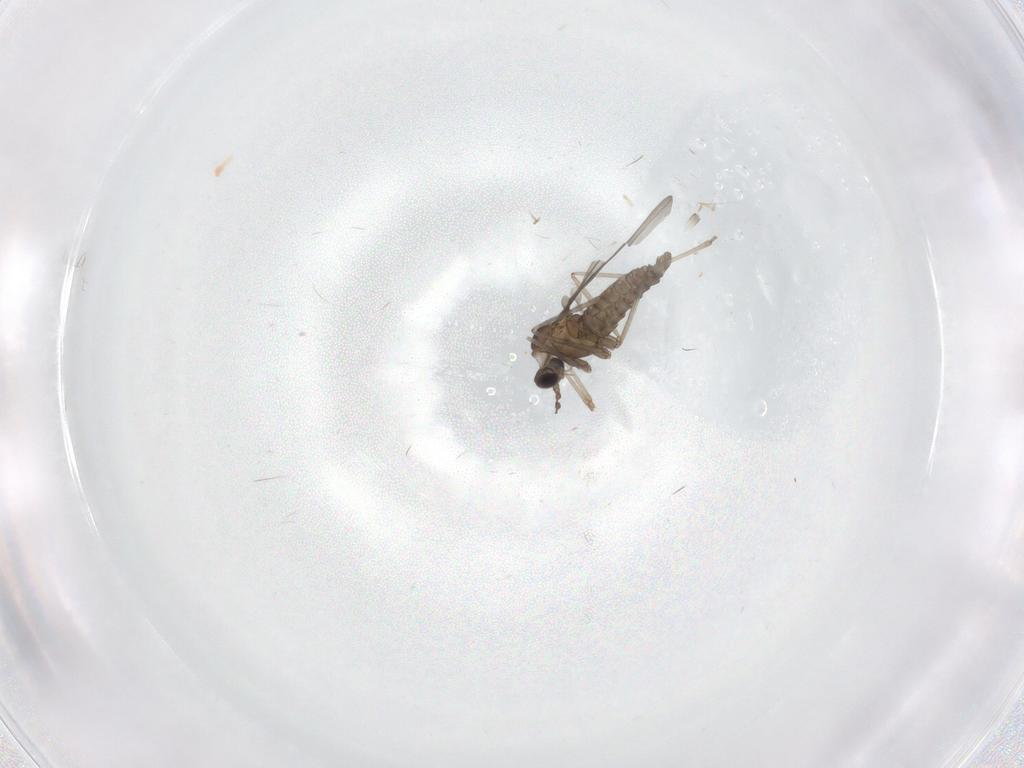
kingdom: Animalia
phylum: Arthropoda
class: Insecta
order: Diptera
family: Cecidomyiidae
